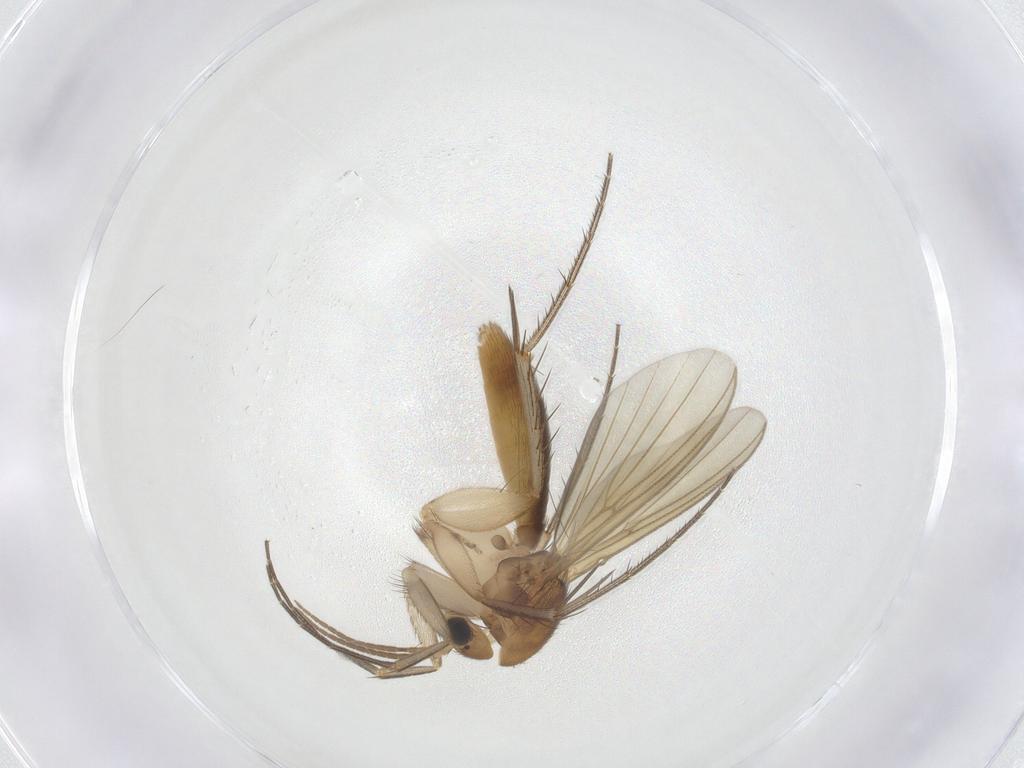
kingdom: Animalia
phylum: Arthropoda
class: Insecta
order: Diptera
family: Mycetophilidae
